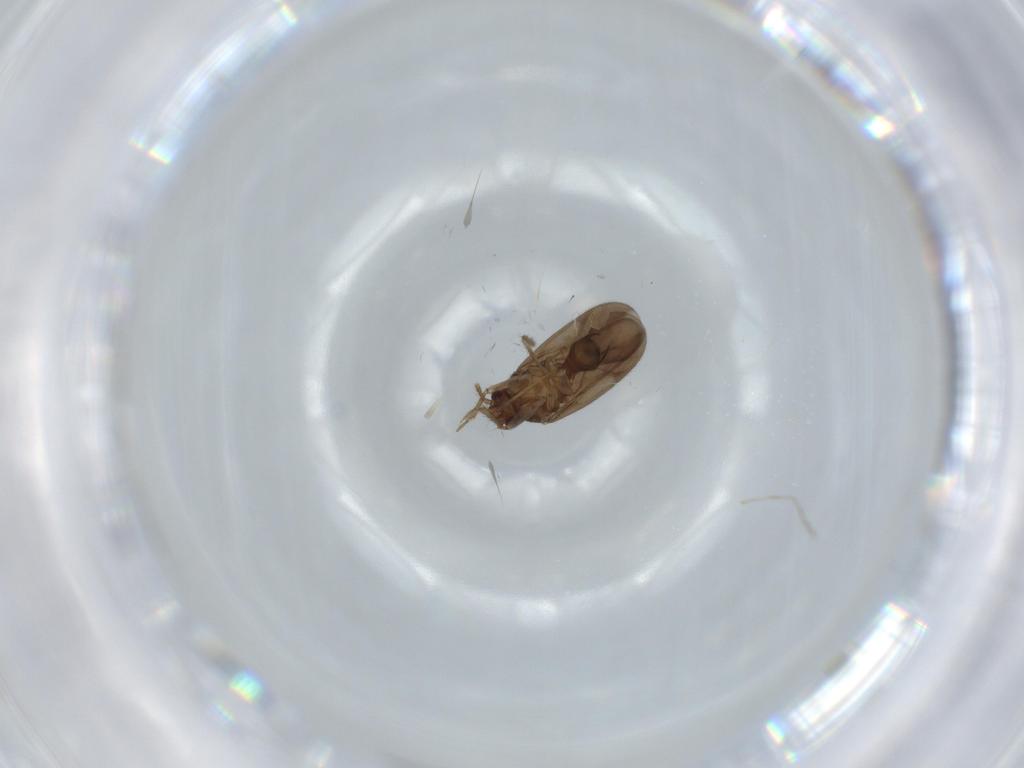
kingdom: Animalia
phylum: Arthropoda
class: Insecta
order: Hemiptera
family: Ceratocombidae
